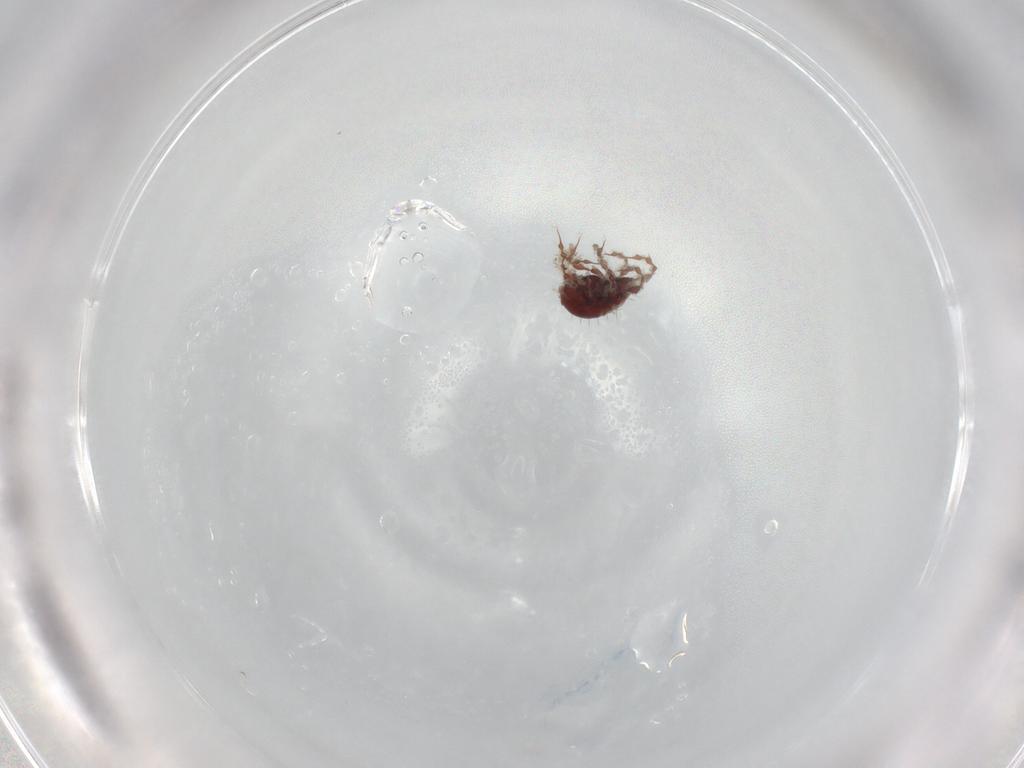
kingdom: Animalia
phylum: Arthropoda
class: Arachnida
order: Sarcoptiformes
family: Damaeidae
